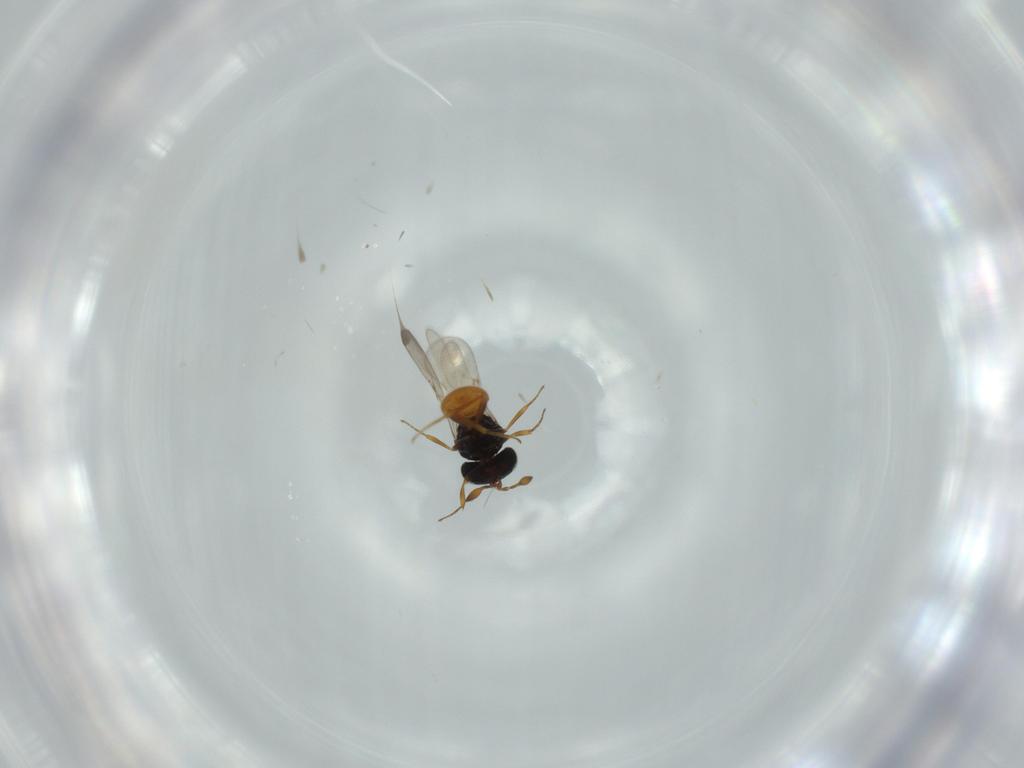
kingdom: Animalia
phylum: Arthropoda
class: Insecta
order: Hymenoptera
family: Scelionidae
